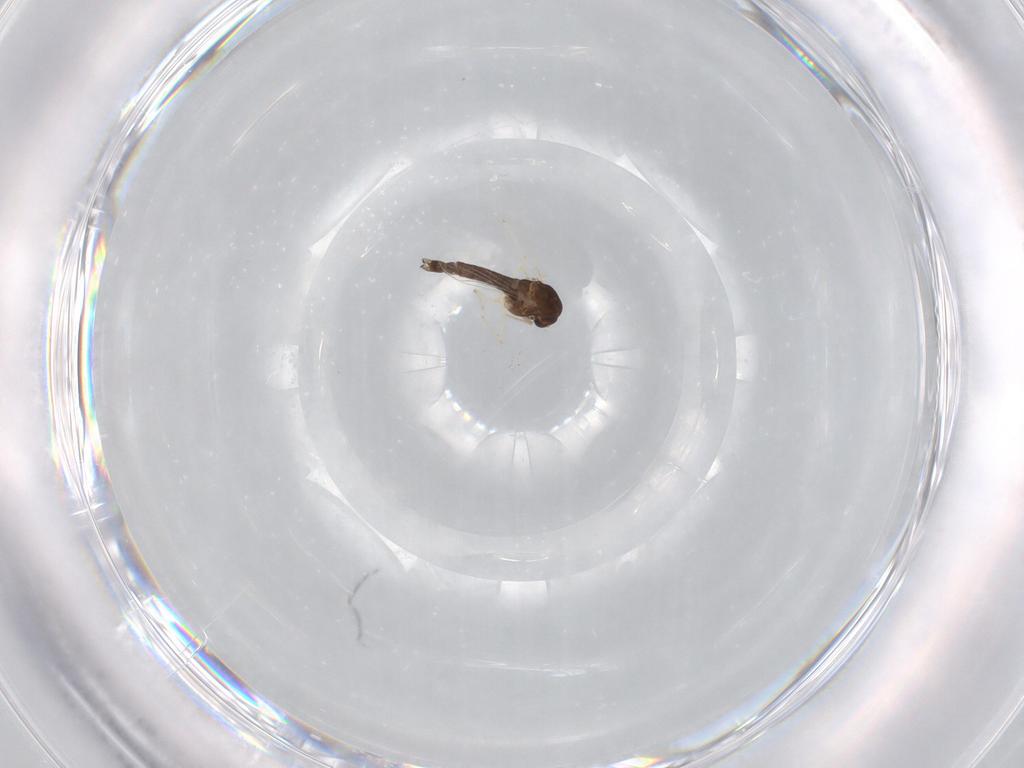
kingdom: Animalia
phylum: Arthropoda
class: Insecta
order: Diptera
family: Chironomidae
